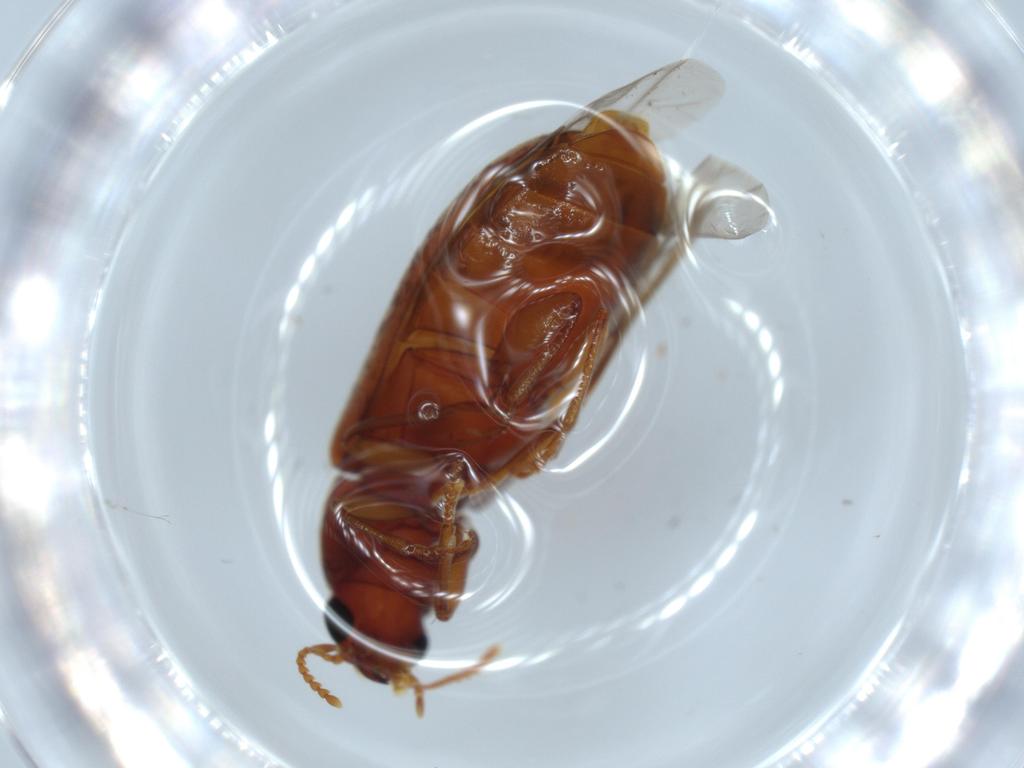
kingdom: Animalia
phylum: Arthropoda
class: Insecta
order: Coleoptera
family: Mycteridae
